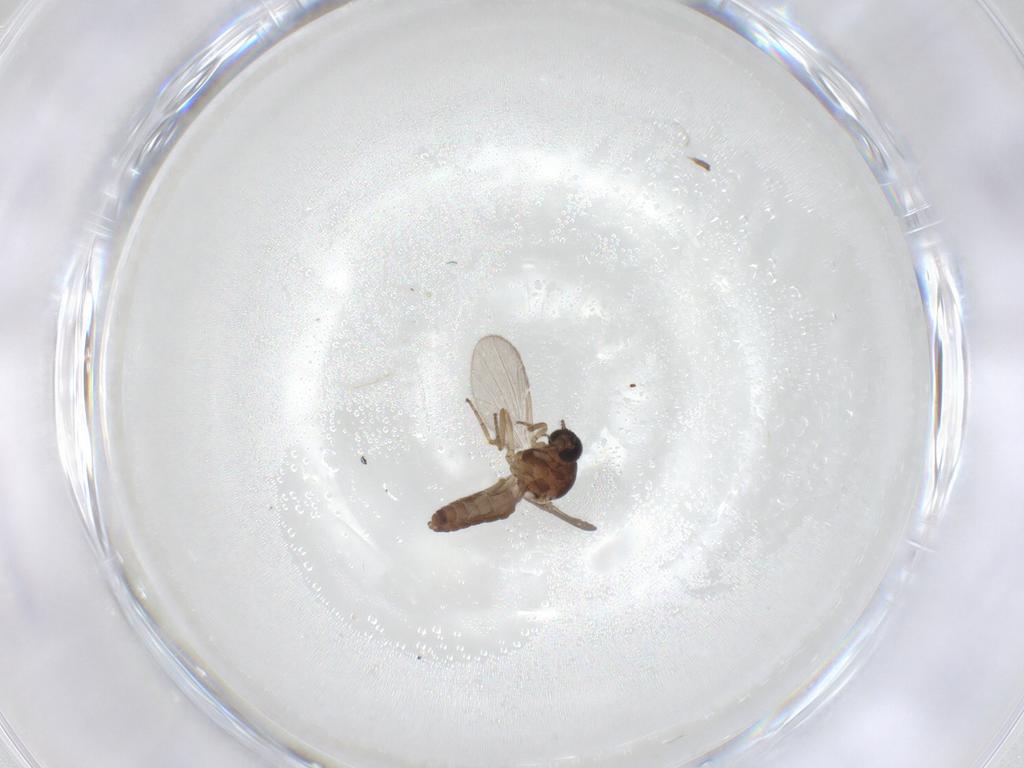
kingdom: Animalia
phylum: Arthropoda
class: Insecta
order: Diptera
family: Ceratopogonidae
